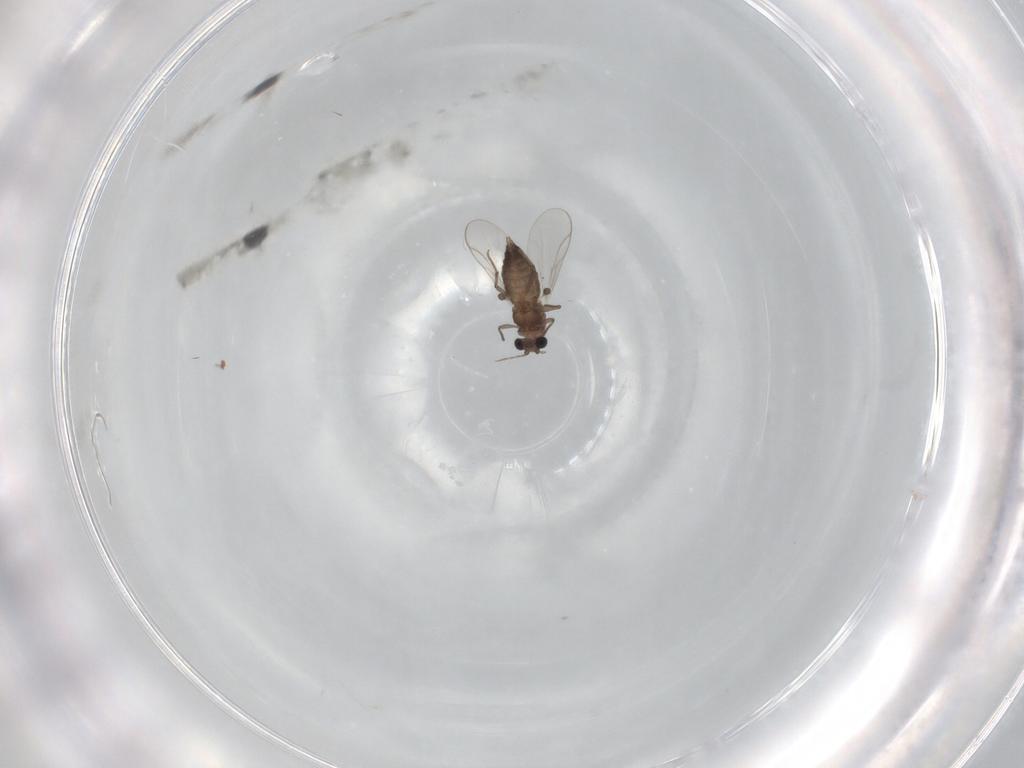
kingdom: Animalia
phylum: Arthropoda
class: Insecta
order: Diptera
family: Chironomidae
